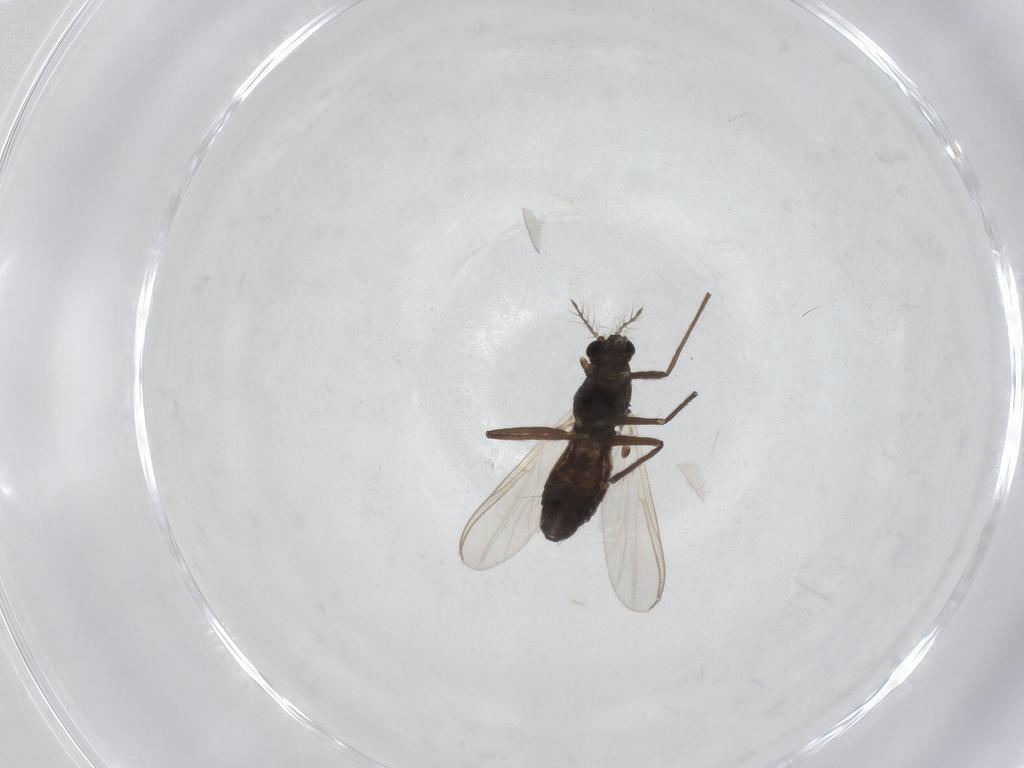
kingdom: Animalia
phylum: Arthropoda
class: Insecta
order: Diptera
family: Chironomidae
